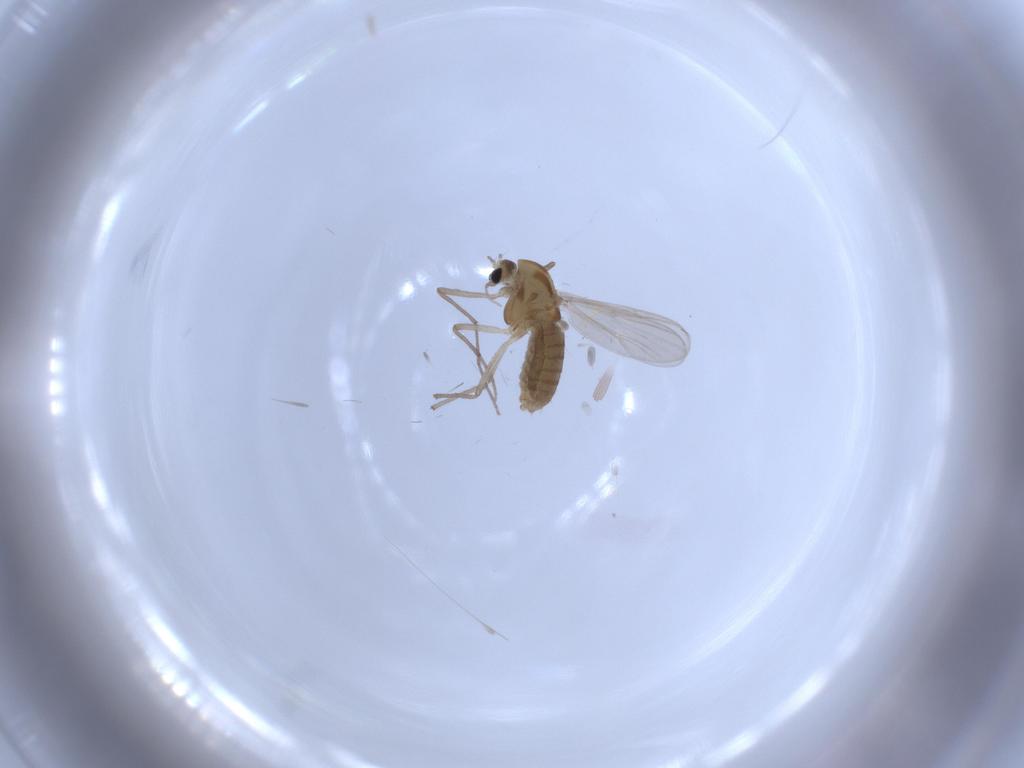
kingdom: Animalia
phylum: Arthropoda
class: Insecta
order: Diptera
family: Chironomidae
